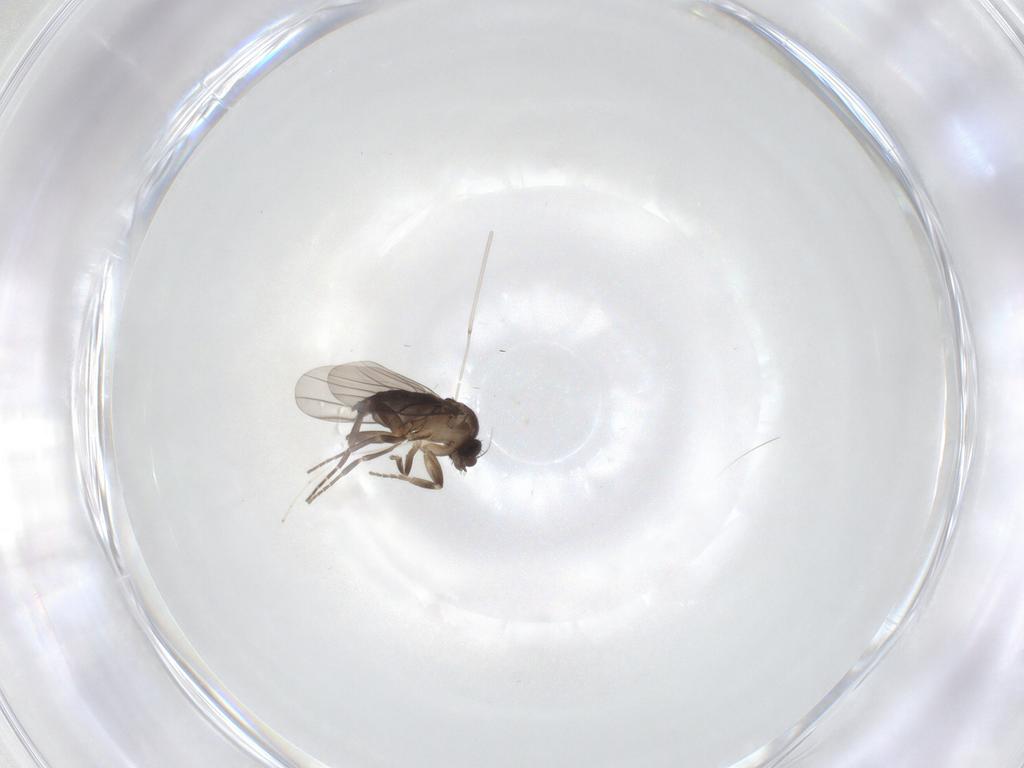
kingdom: Animalia
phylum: Arthropoda
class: Insecta
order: Diptera
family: Phoridae
